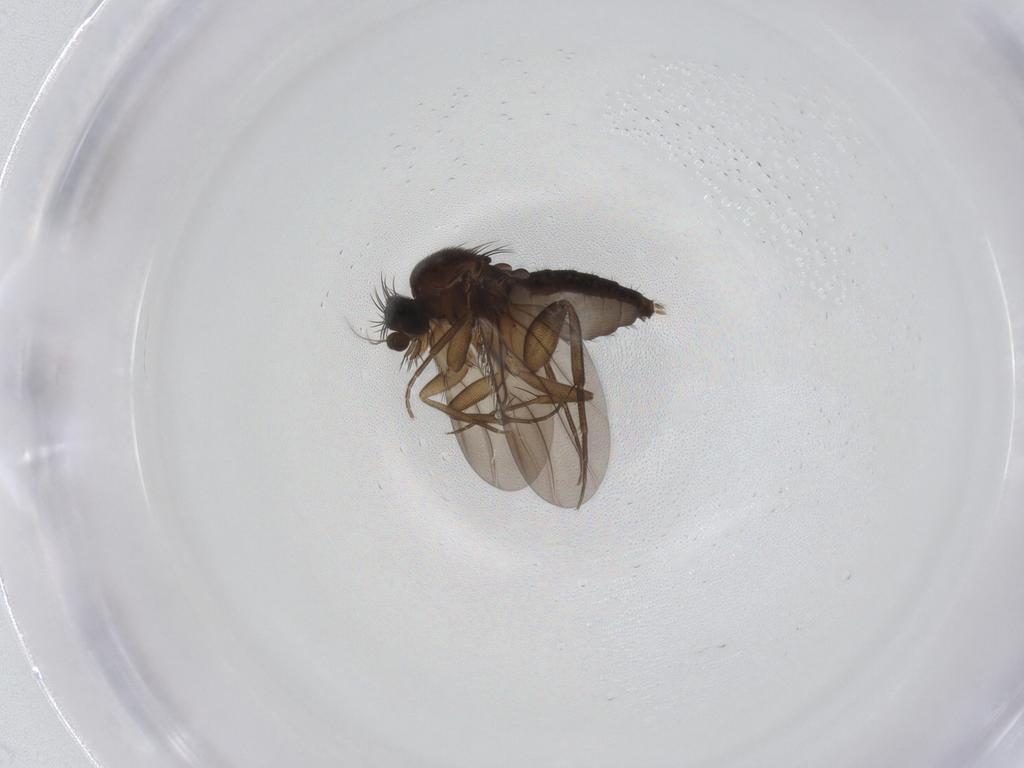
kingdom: Animalia
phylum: Arthropoda
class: Insecta
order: Diptera
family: Phoridae
